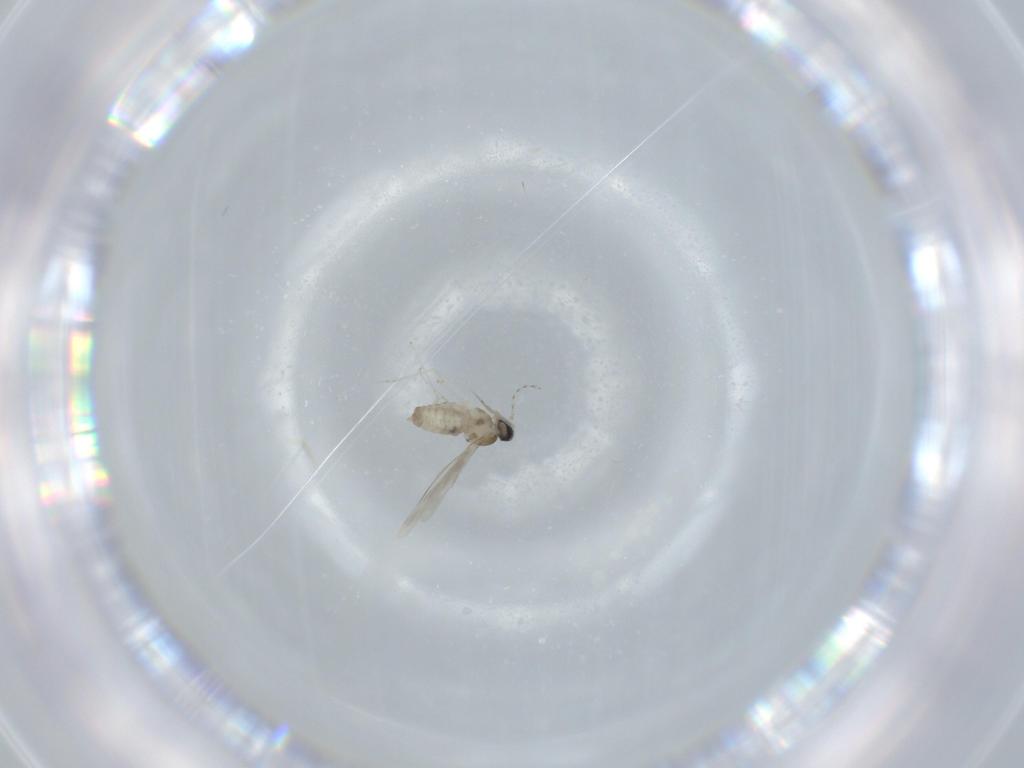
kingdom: Animalia
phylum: Arthropoda
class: Insecta
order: Diptera
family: Cecidomyiidae
